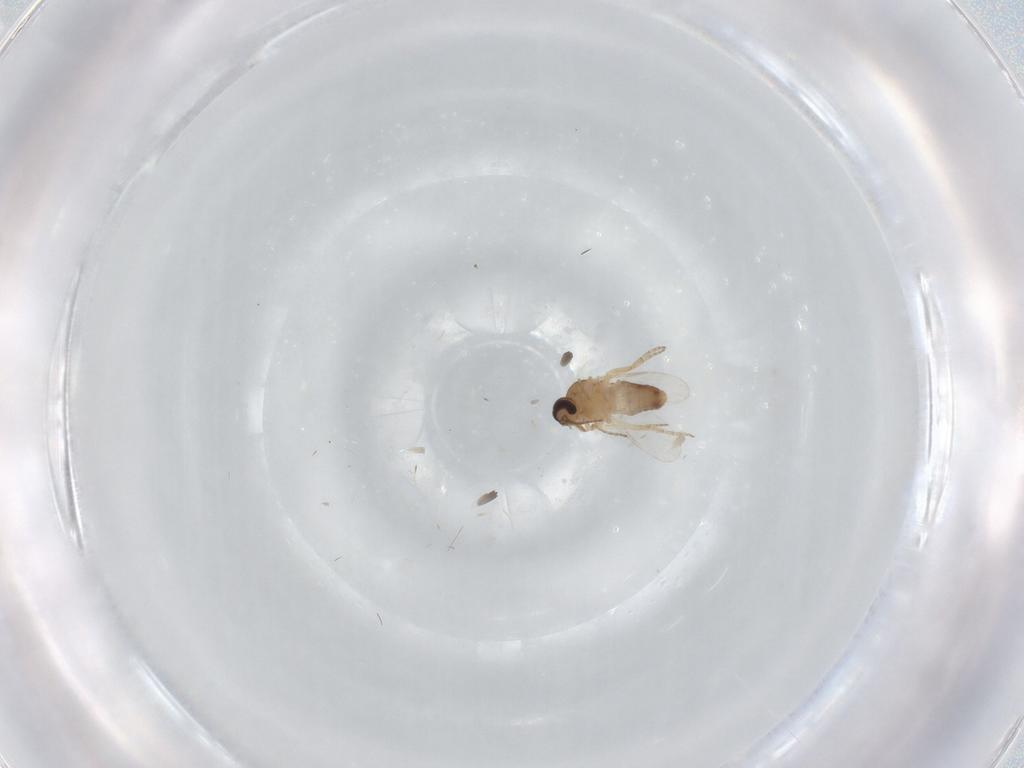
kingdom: Animalia
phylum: Arthropoda
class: Insecta
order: Diptera
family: Ceratopogonidae
